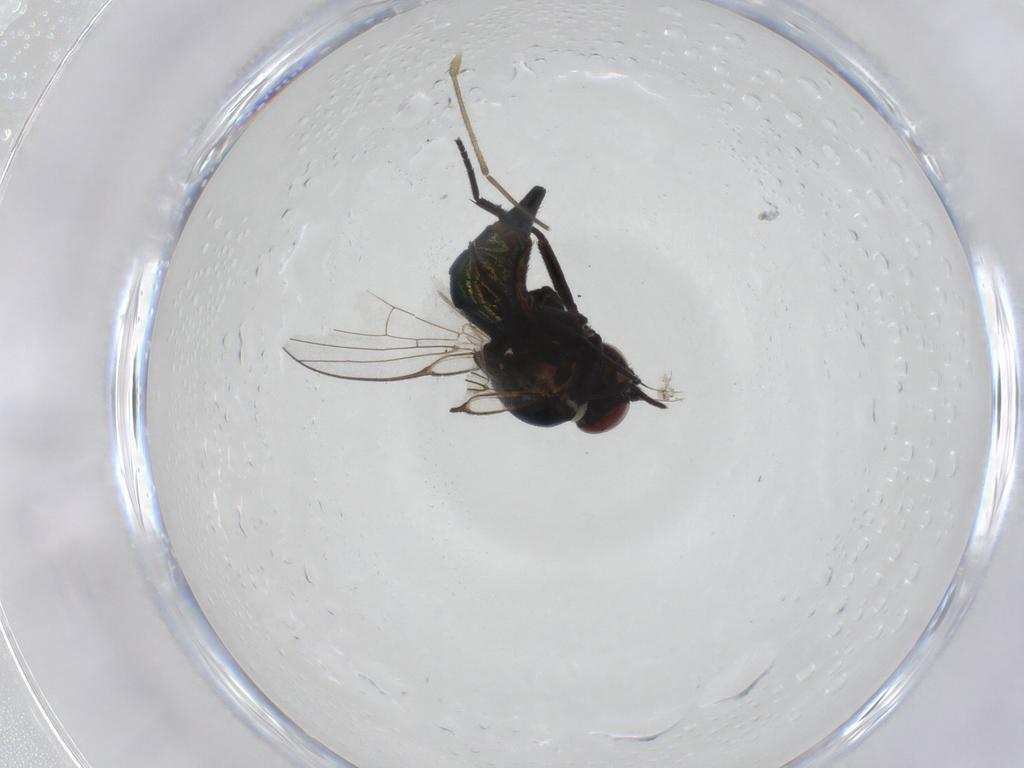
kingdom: Animalia
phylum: Arthropoda
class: Insecta
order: Diptera
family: Agromyzidae
